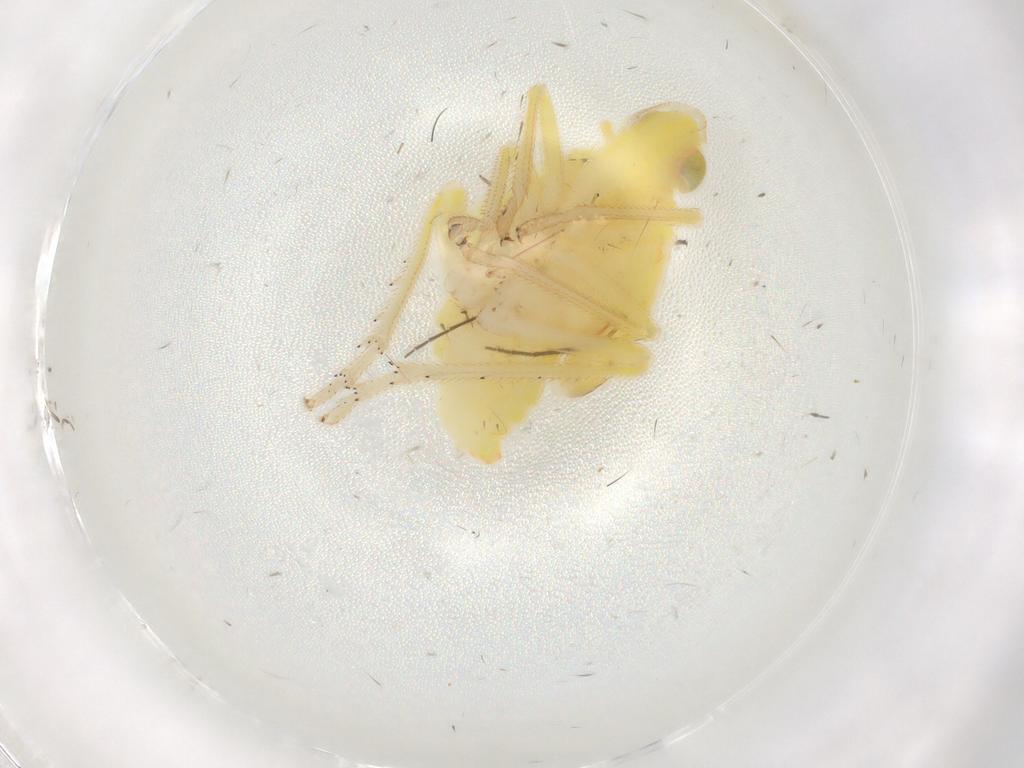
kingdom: Animalia
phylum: Arthropoda
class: Insecta
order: Hemiptera
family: Tropiduchidae
